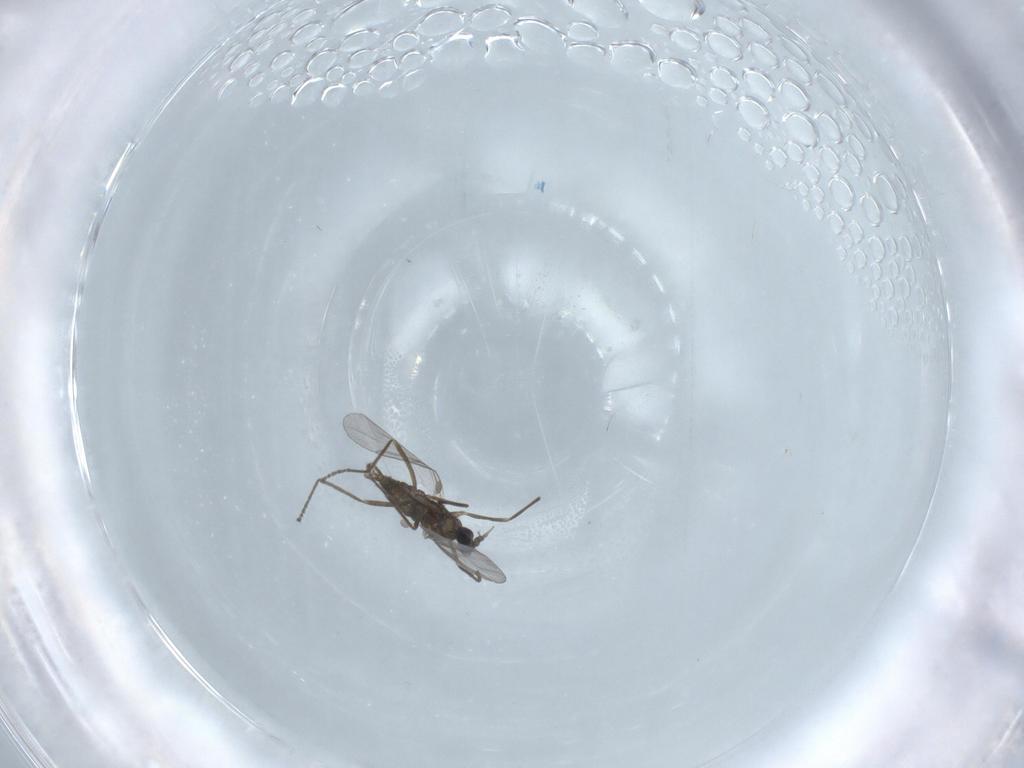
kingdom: Animalia
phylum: Arthropoda
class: Insecta
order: Diptera
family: Cecidomyiidae
